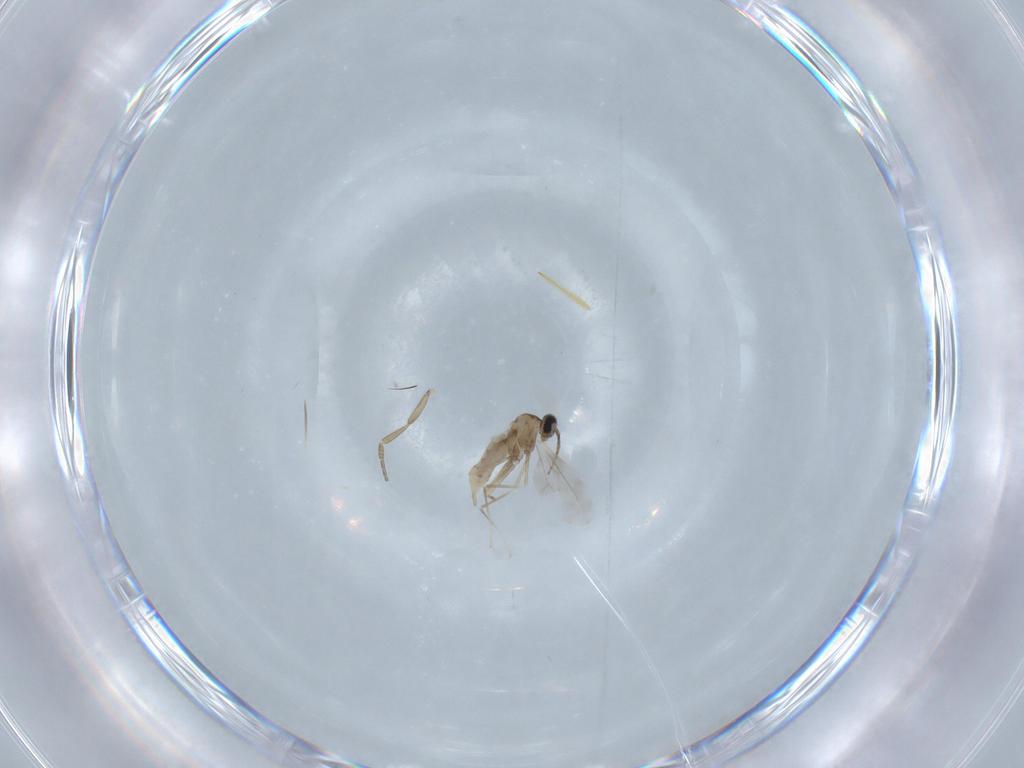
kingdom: Animalia
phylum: Arthropoda
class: Insecta
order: Diptera
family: Cecidomyiidae
